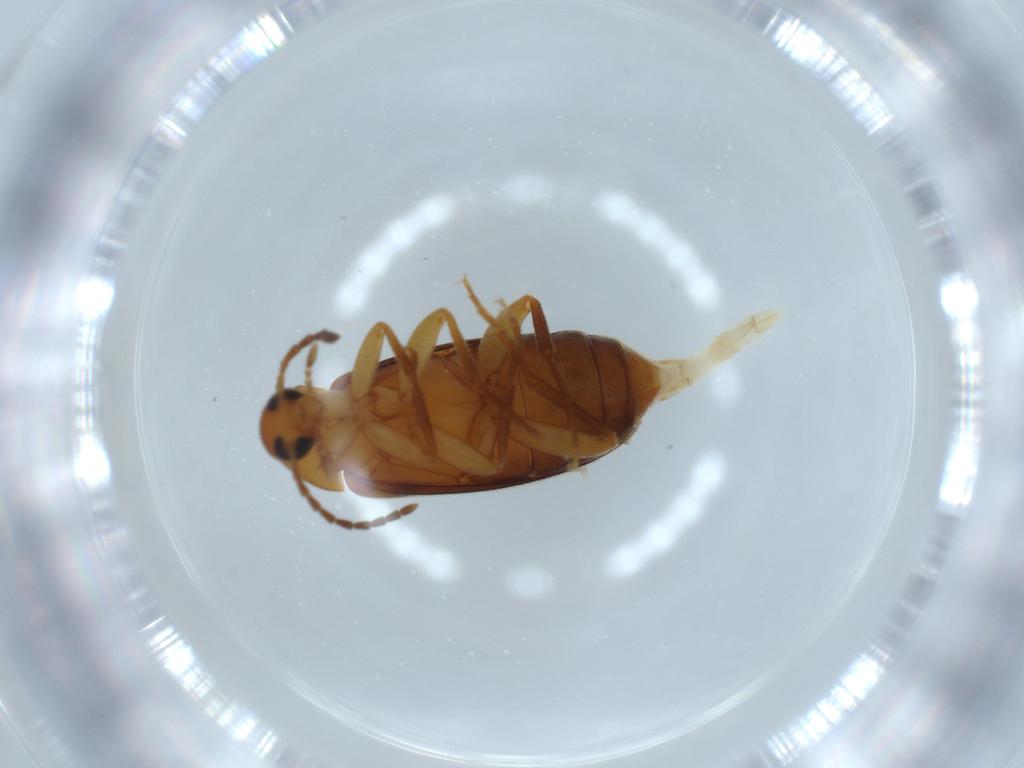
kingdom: Animalia
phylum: Arthropoda
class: Insecta
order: Coleoptera
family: Scraptiidae
